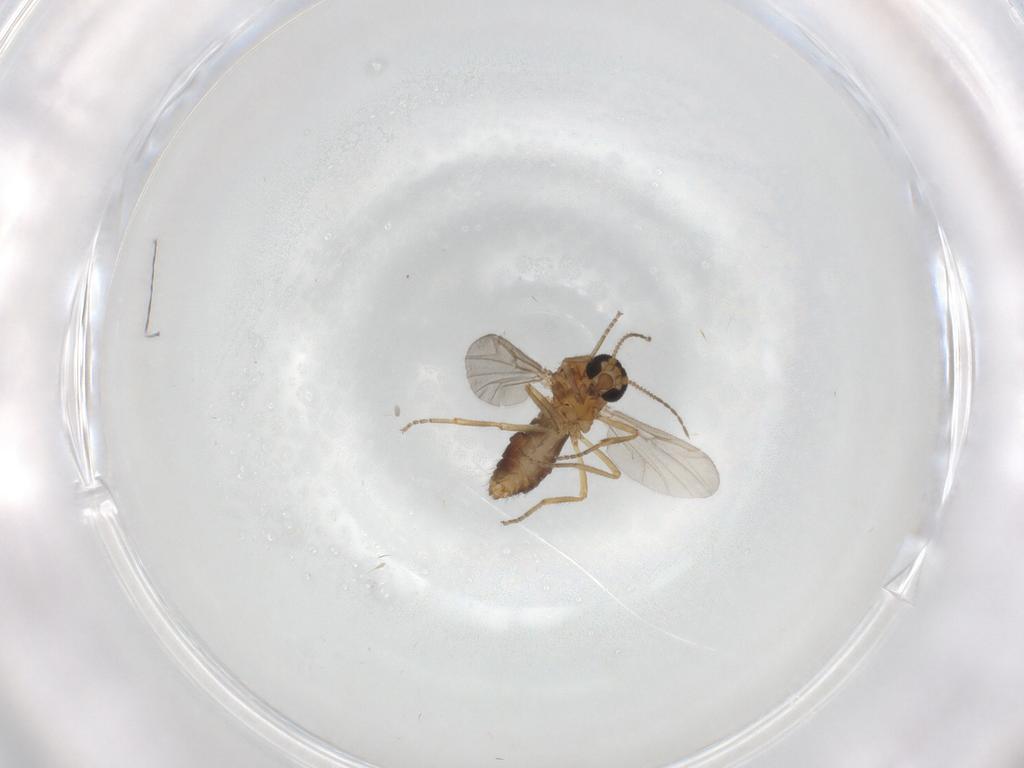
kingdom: Animalia
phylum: Arthropoda
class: Insecta
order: Diptera
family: Ceratopogonidae
